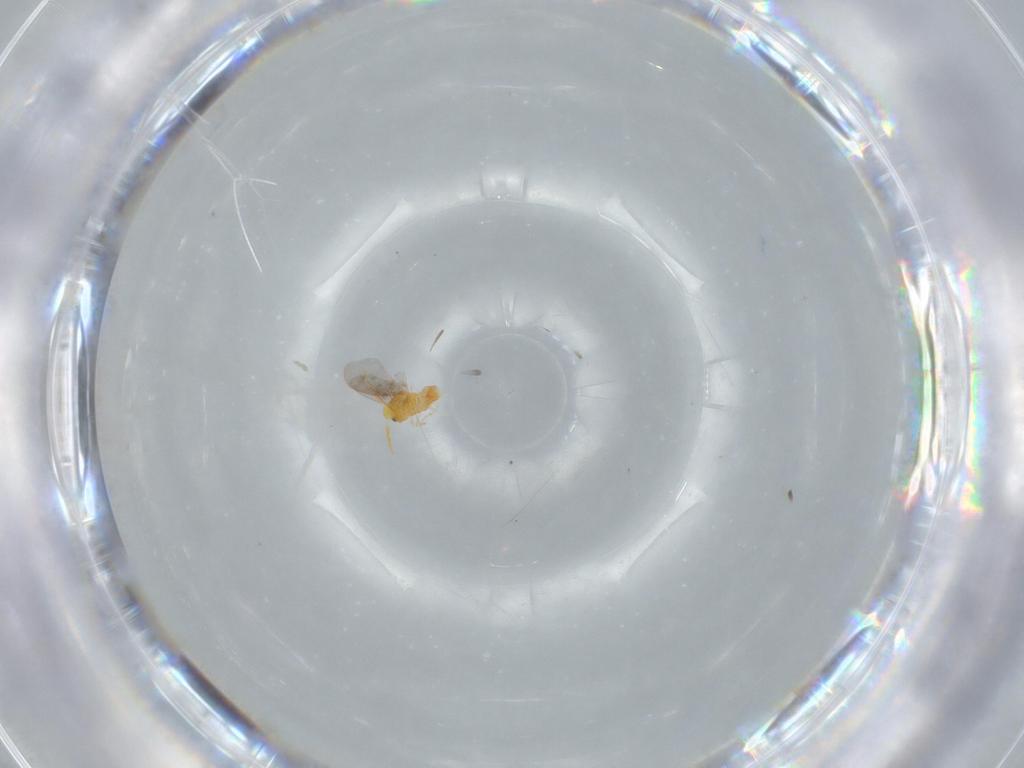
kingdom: Animalia
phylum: Arthropoda
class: Insecta
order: Hemiptera
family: Aleyrodidae
